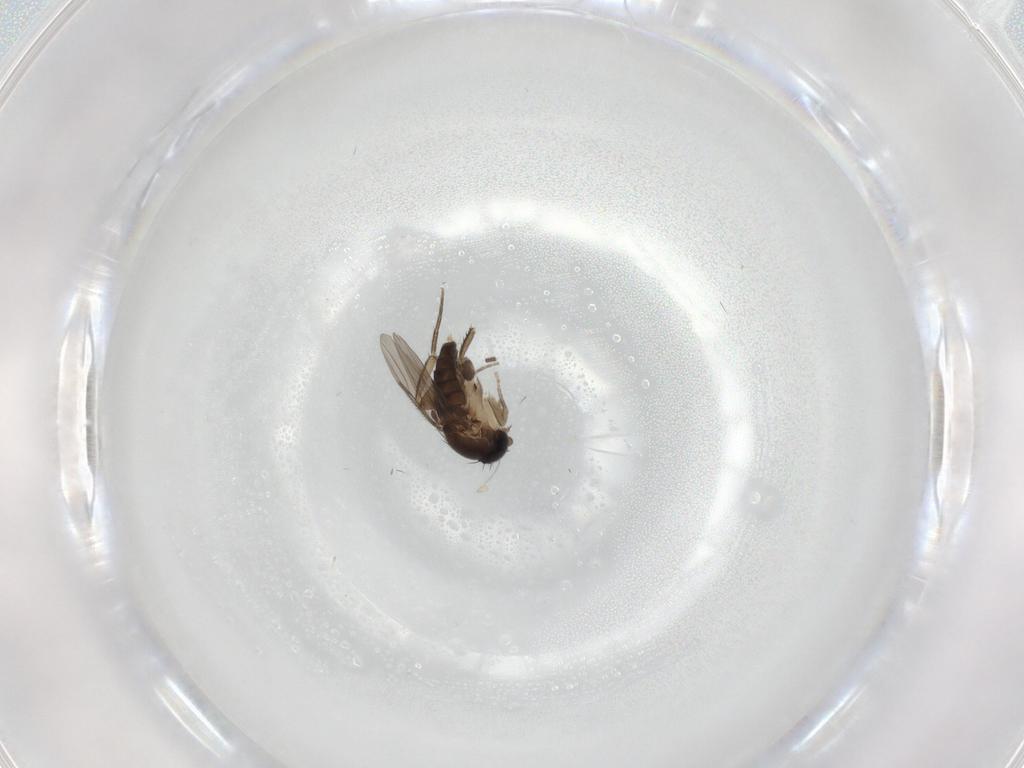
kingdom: Animalia
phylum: Arthropoda
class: Insecta
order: Diptera
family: Phoridae
